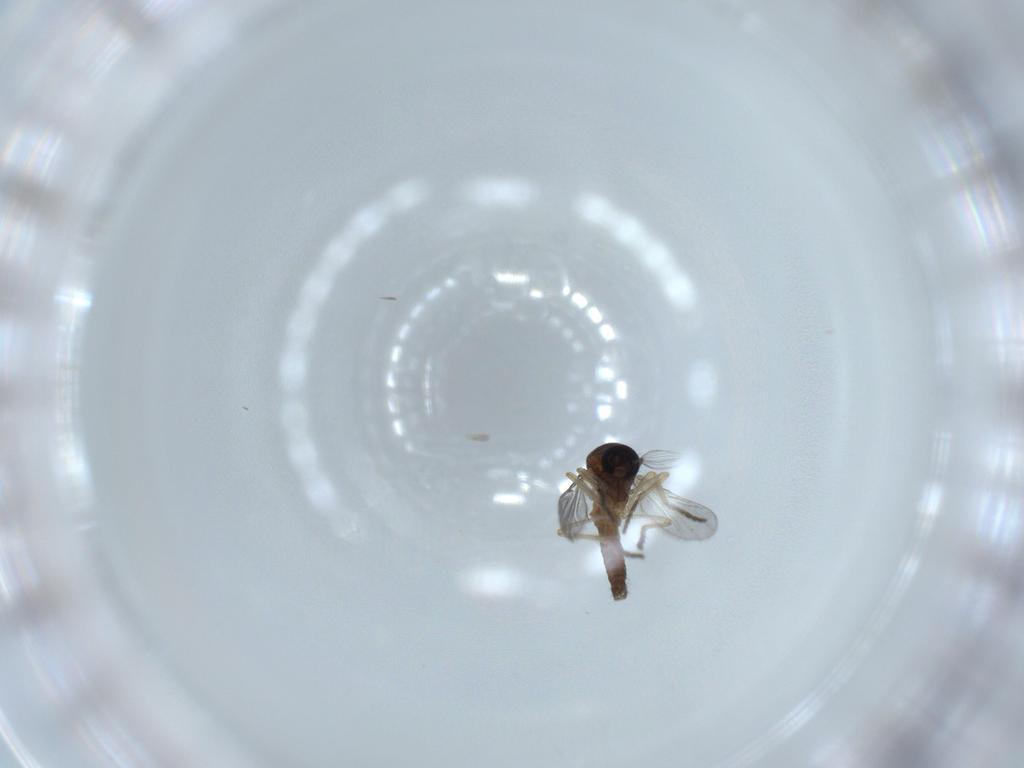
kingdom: Animalia
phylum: Arthropoda
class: Insecta
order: Diptera
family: Chironomidae
